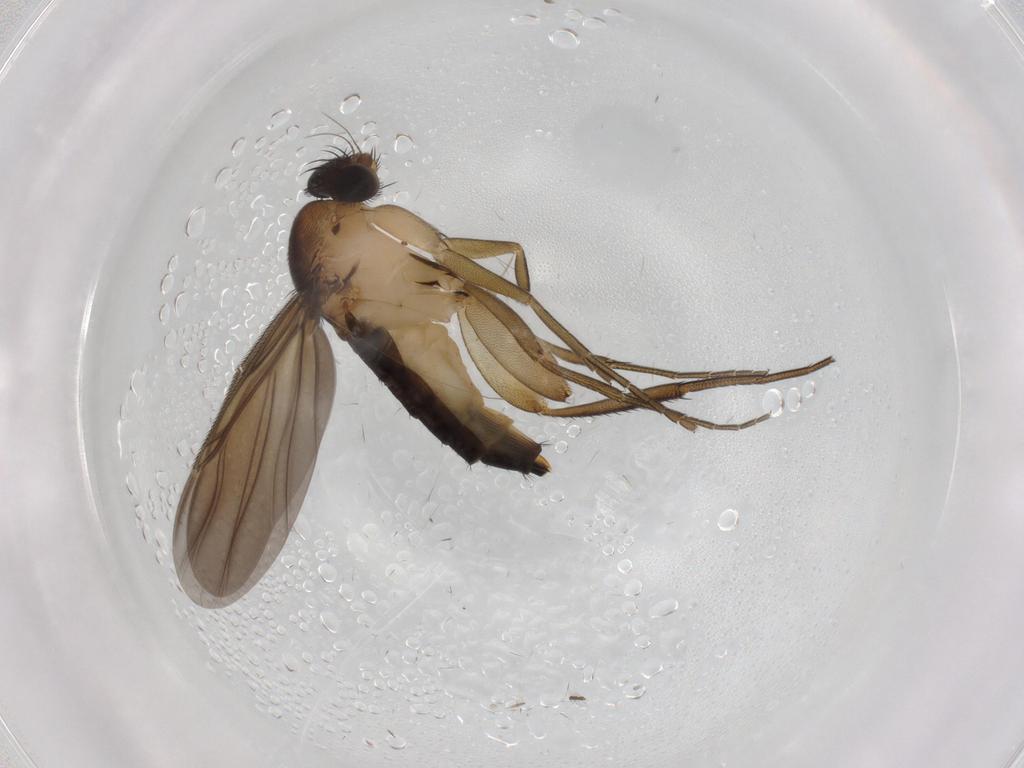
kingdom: Animalia
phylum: Arthropoda
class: Insecta
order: Diptera
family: Phoridae
